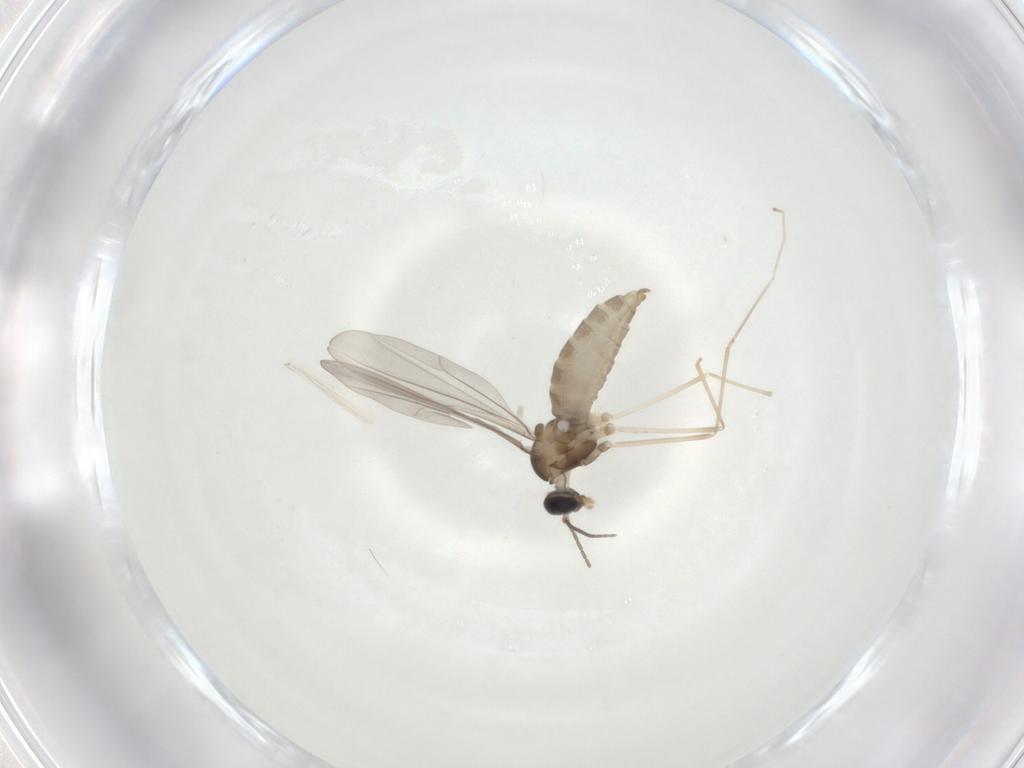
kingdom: Animalia
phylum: Arthropoda
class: Insecta
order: Diptera
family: Cecidomyiidae
